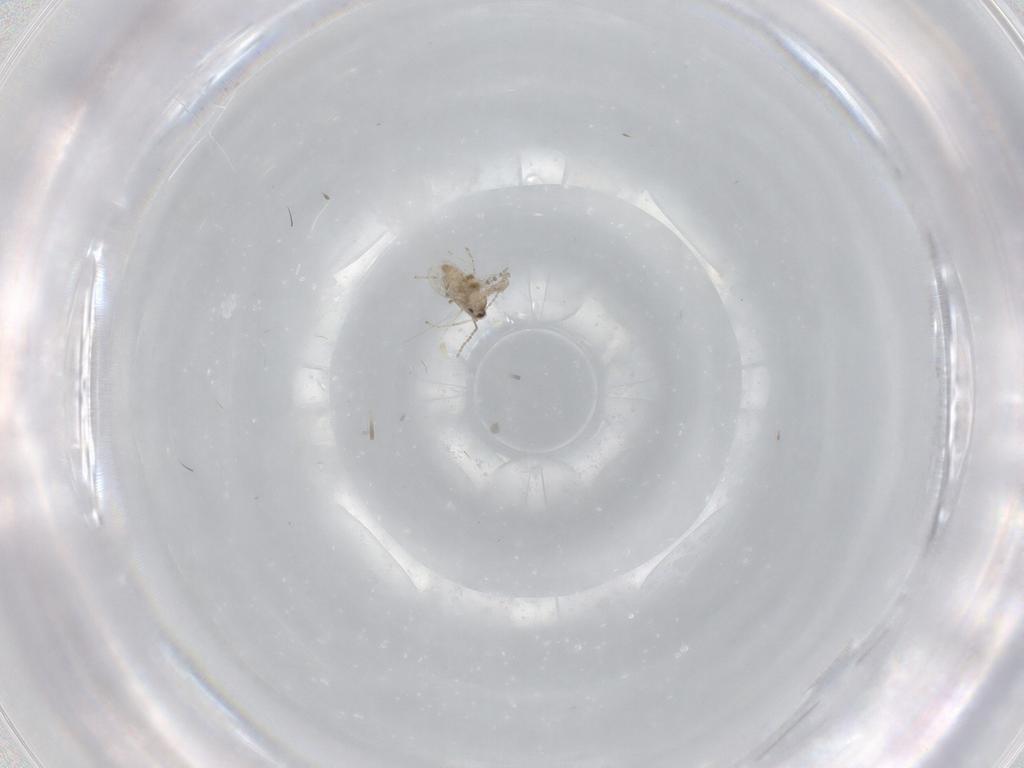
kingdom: Animalia
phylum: Arthropoda
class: Insecta
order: Diptera
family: Cecidomyiidae
